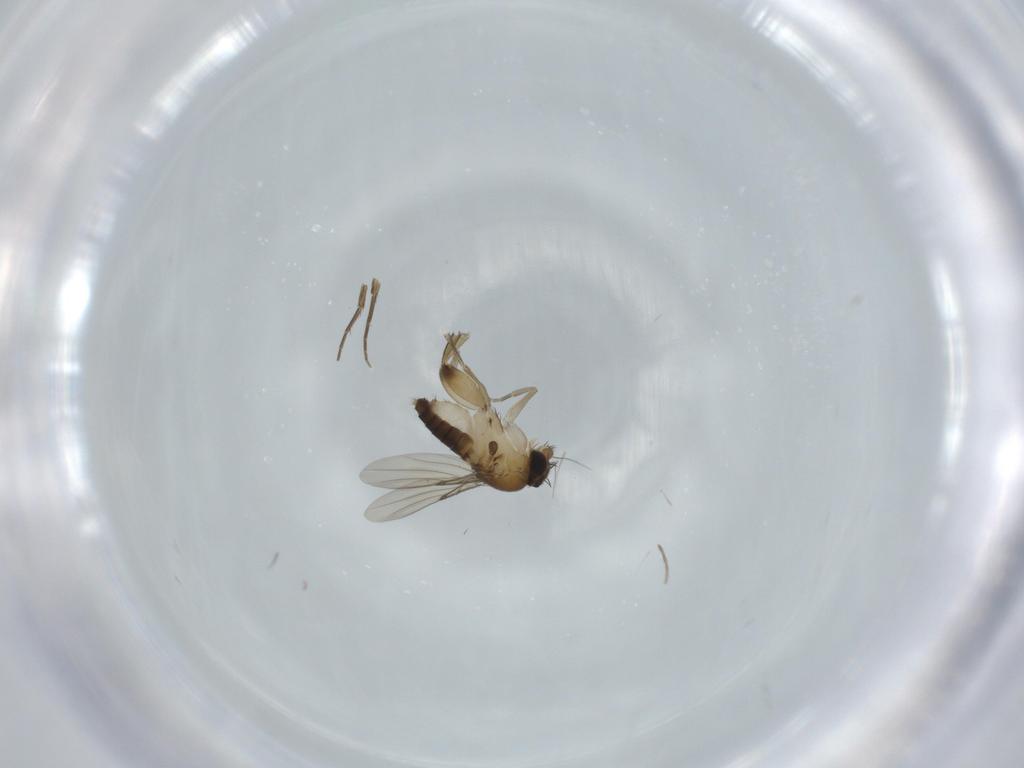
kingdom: Animalia
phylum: Arthropoda
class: Insecta
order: Diptera
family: Phoridae
